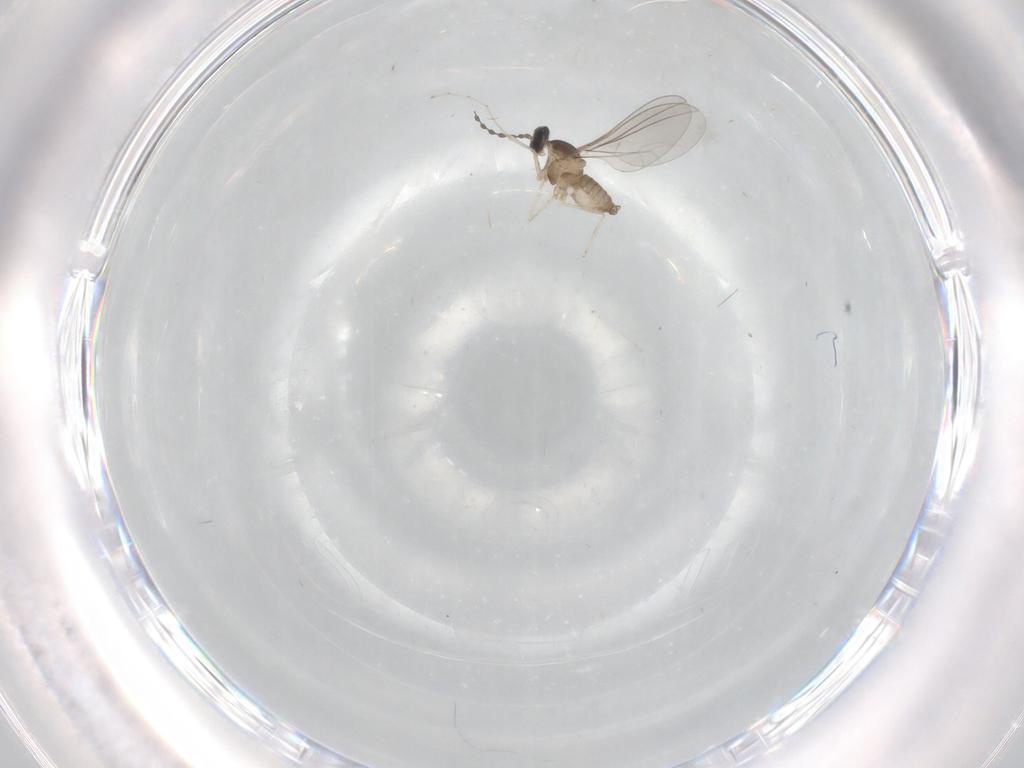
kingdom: Animalia
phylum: Arthropoda
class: Insecta
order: Diptera
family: Cecidomyiidae
